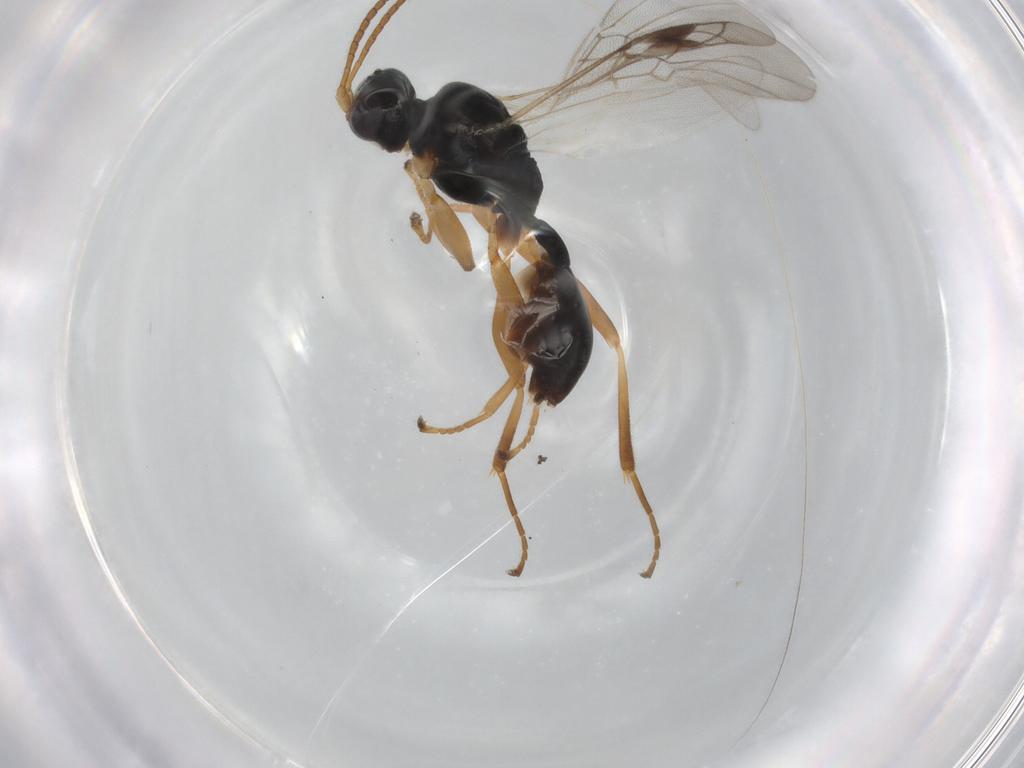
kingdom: Animalia
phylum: Arthropoda
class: Insecta
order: Hymenoptera
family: Braconidae
